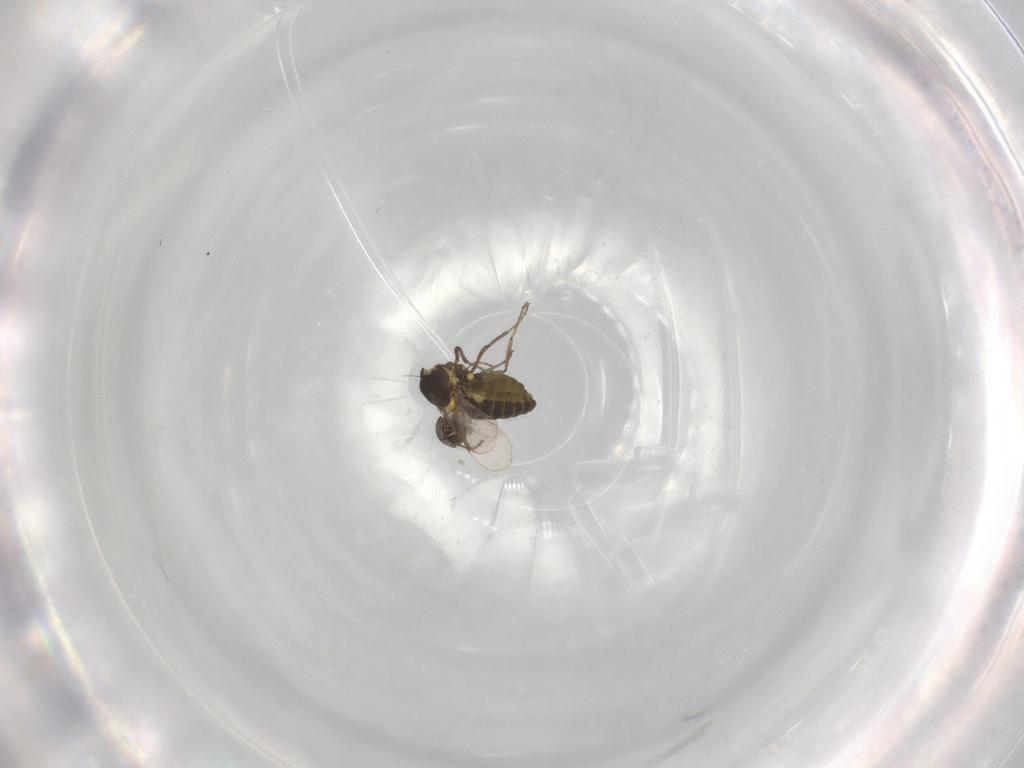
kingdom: Animalia
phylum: Arthropoda
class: Insecta
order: Diptera
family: Ceratopogonidae
